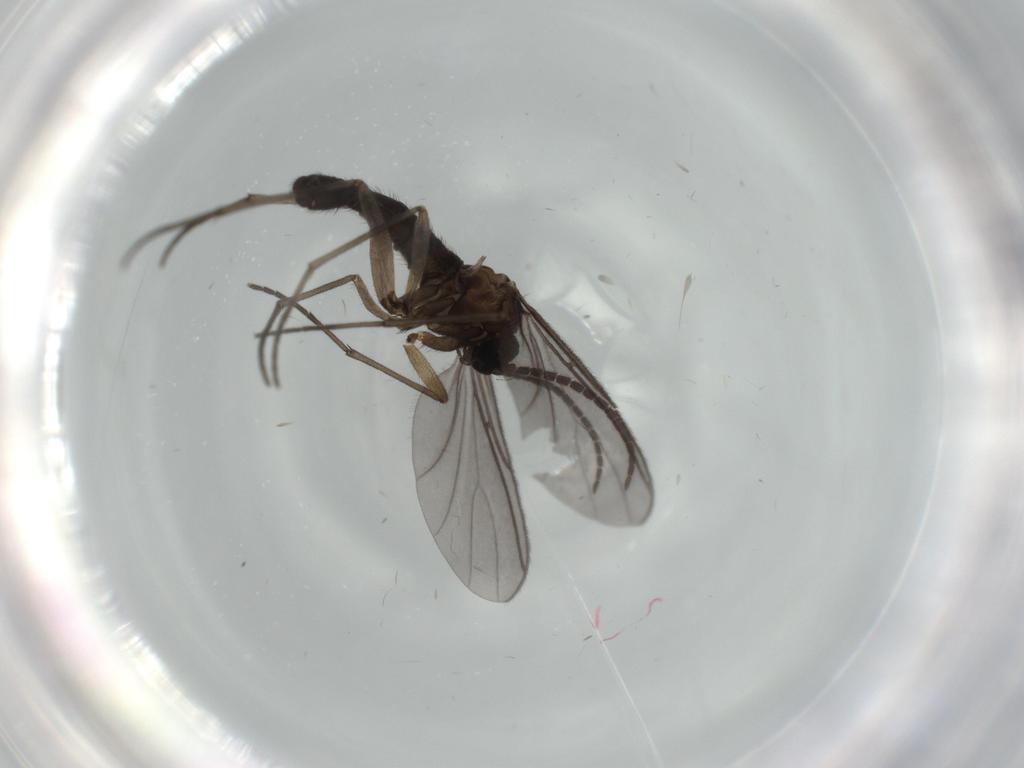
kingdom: Animalia
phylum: Arthropoda
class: Insecta
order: Diptera
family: Sciaridae
